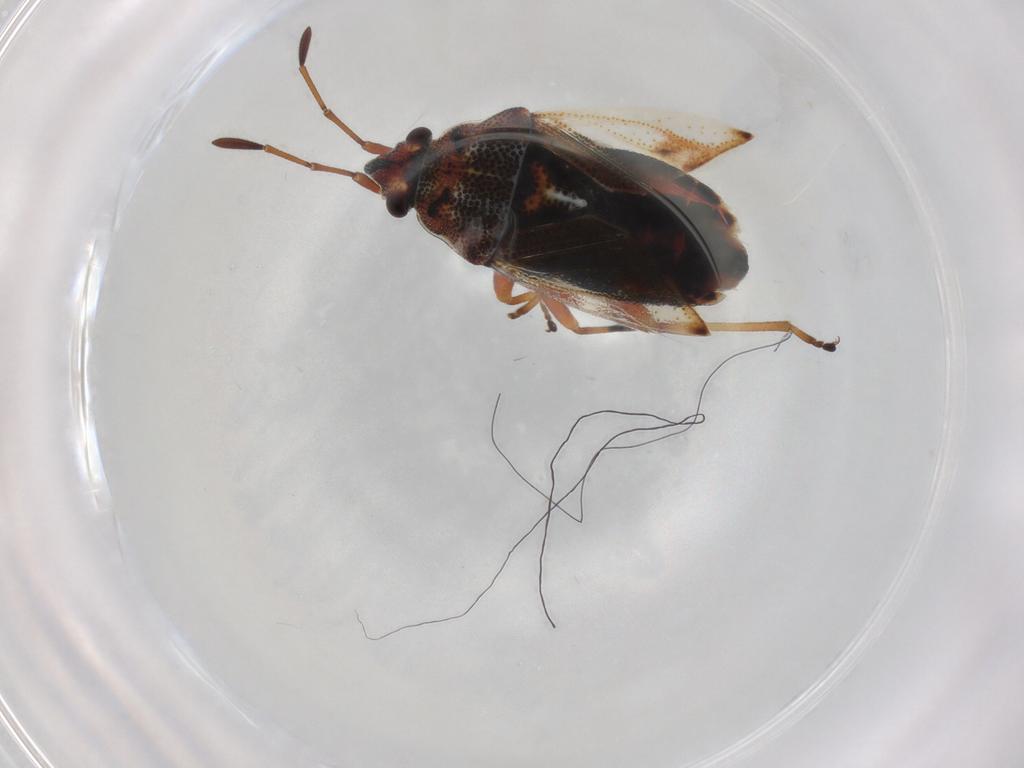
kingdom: Animalia
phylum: Arthropoda
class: Insecta
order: Hemiptera
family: Lygaeidae
